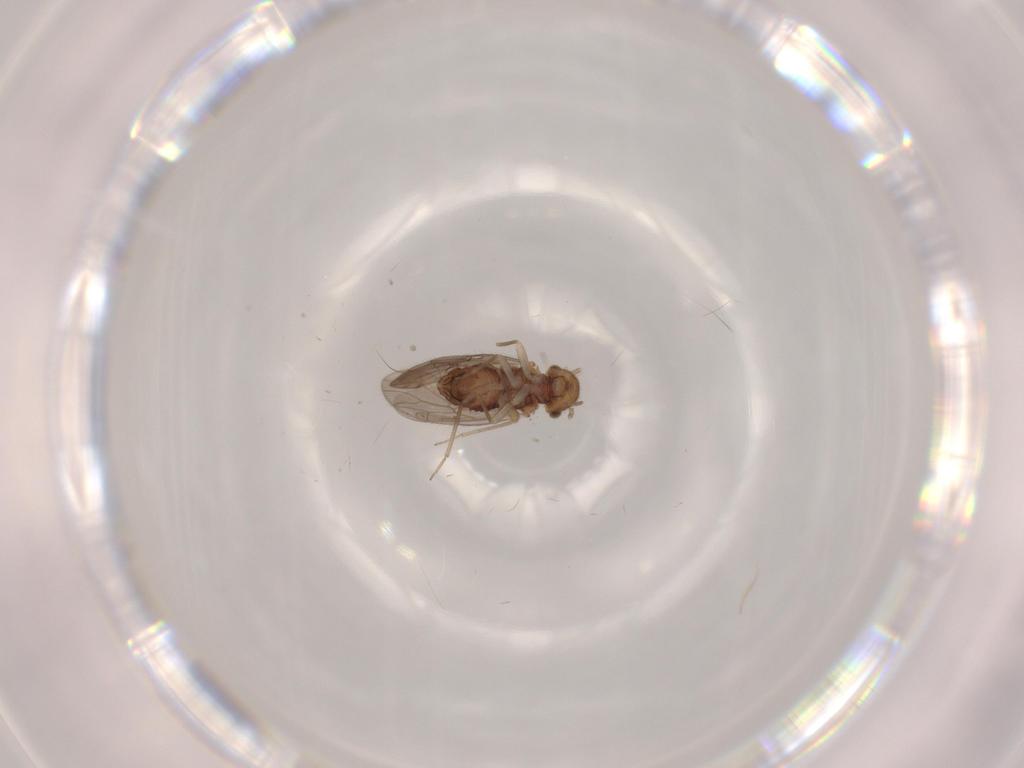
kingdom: Animalia
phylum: Arthropoda
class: Insecta
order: Psocodea
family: Ectopsocidae
